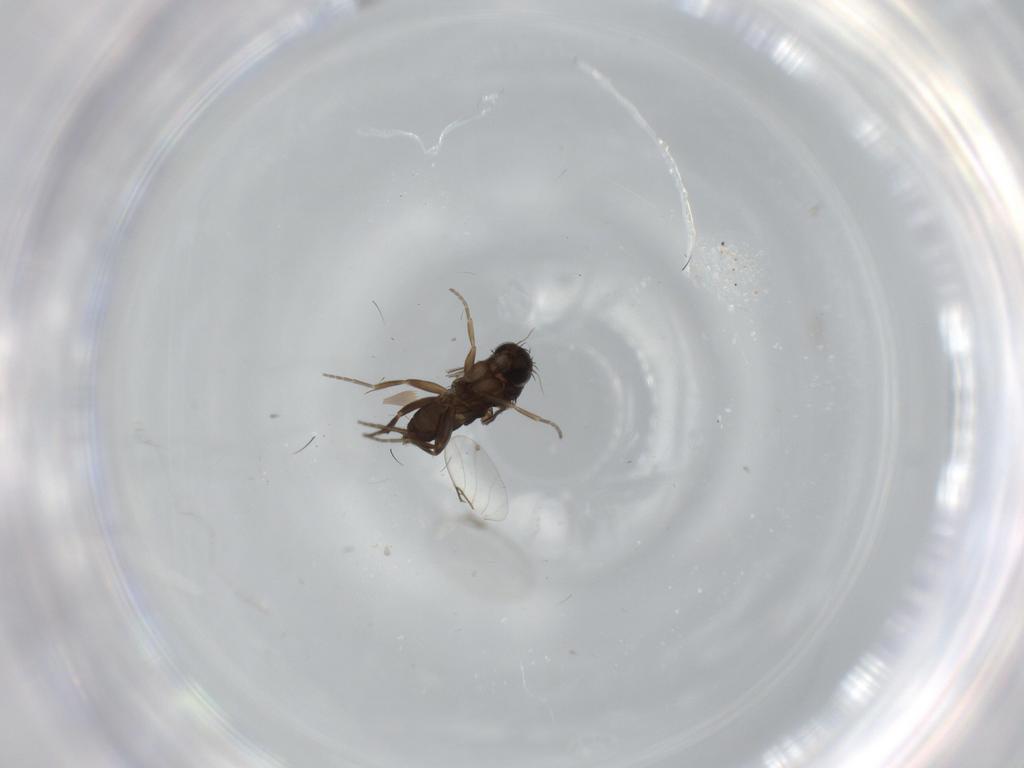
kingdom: Animalia
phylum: Arthropoda
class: Insecta
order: Diptera
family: Phoridae
